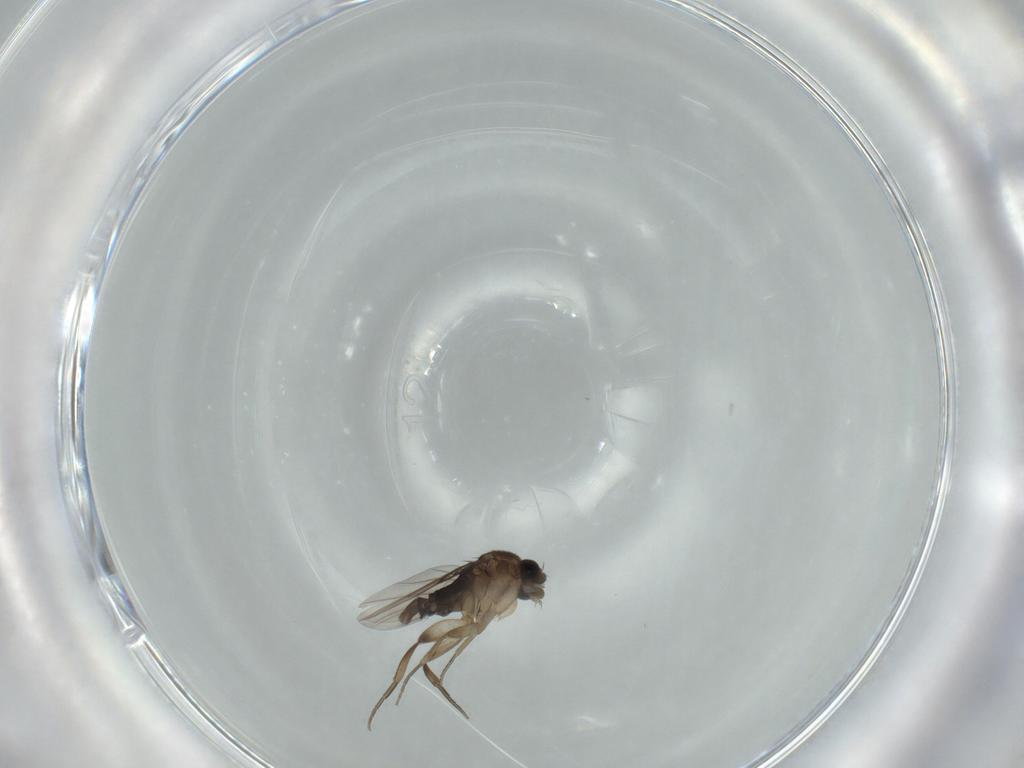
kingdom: Animalia
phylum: Arthropoda
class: Insecta
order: Diptera
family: Phoridae
